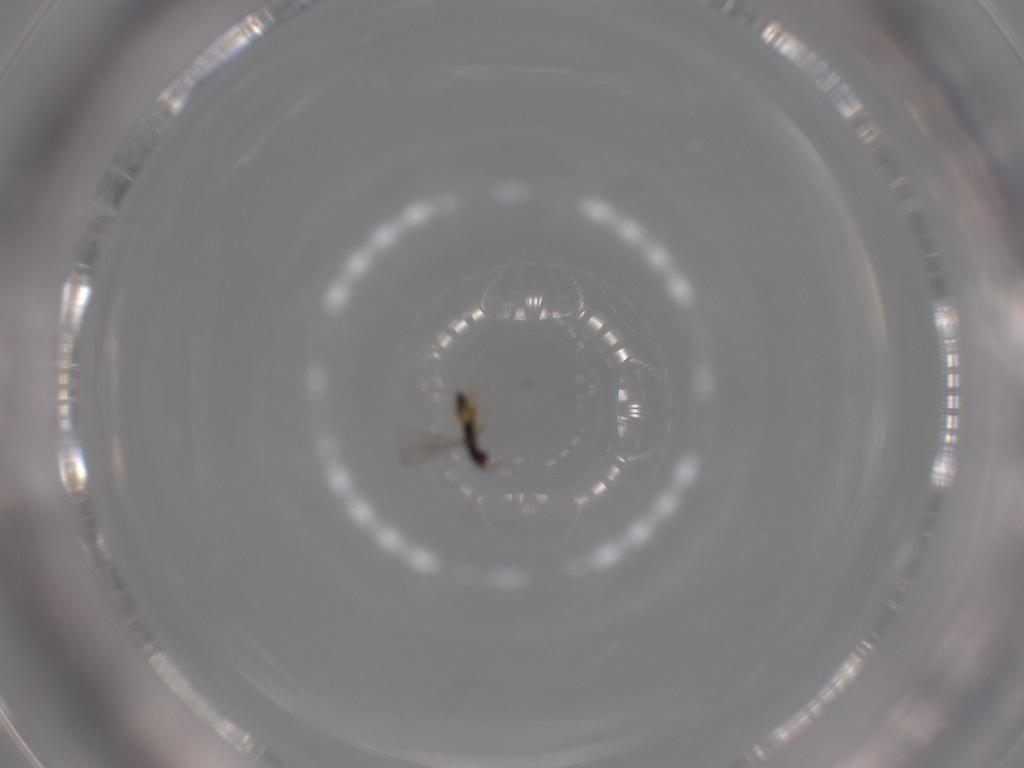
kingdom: Animalia
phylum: Arthropoda
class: Insecta
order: Hymenoptera
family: Eulophidae
